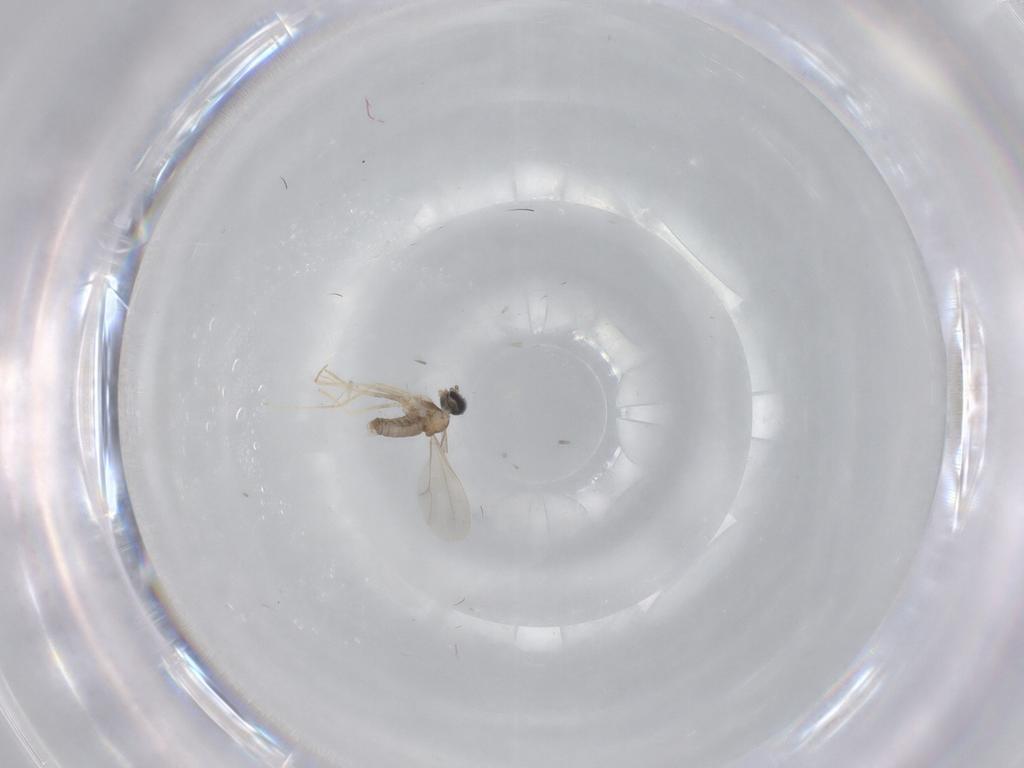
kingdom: Animalia
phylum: Arthropoda
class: Insecta
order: Diptera
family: Cecidomyiidae
